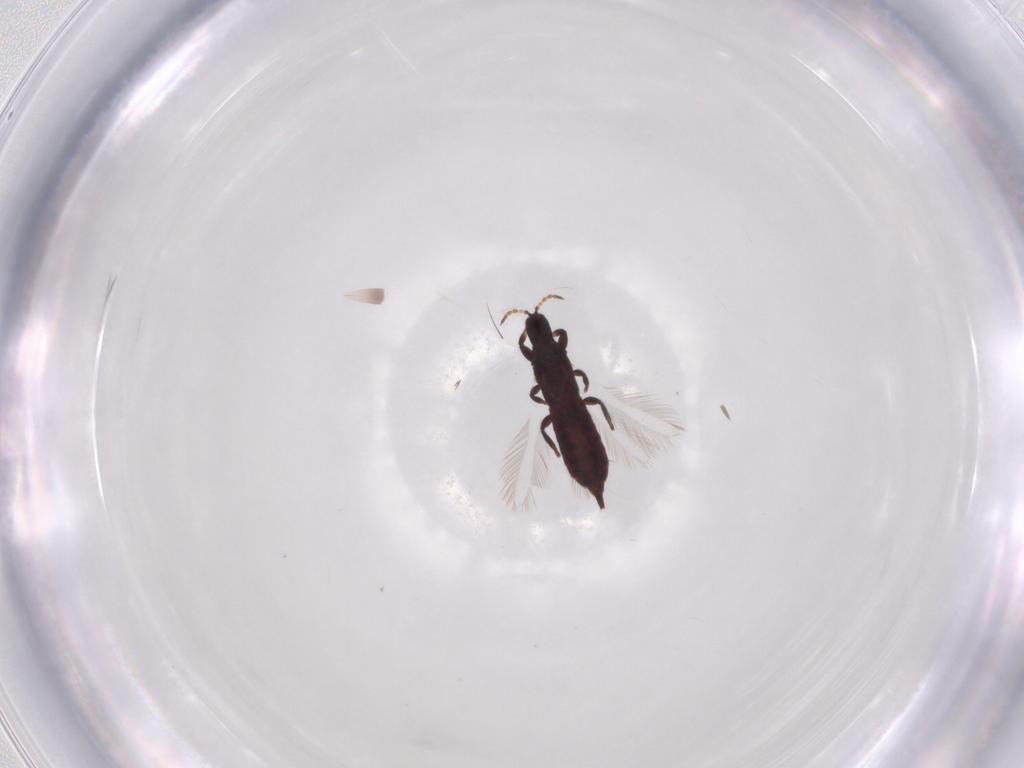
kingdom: Animalia
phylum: Arthropoda
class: Insecta
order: Thysanoptera
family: Phlaeothripidae
